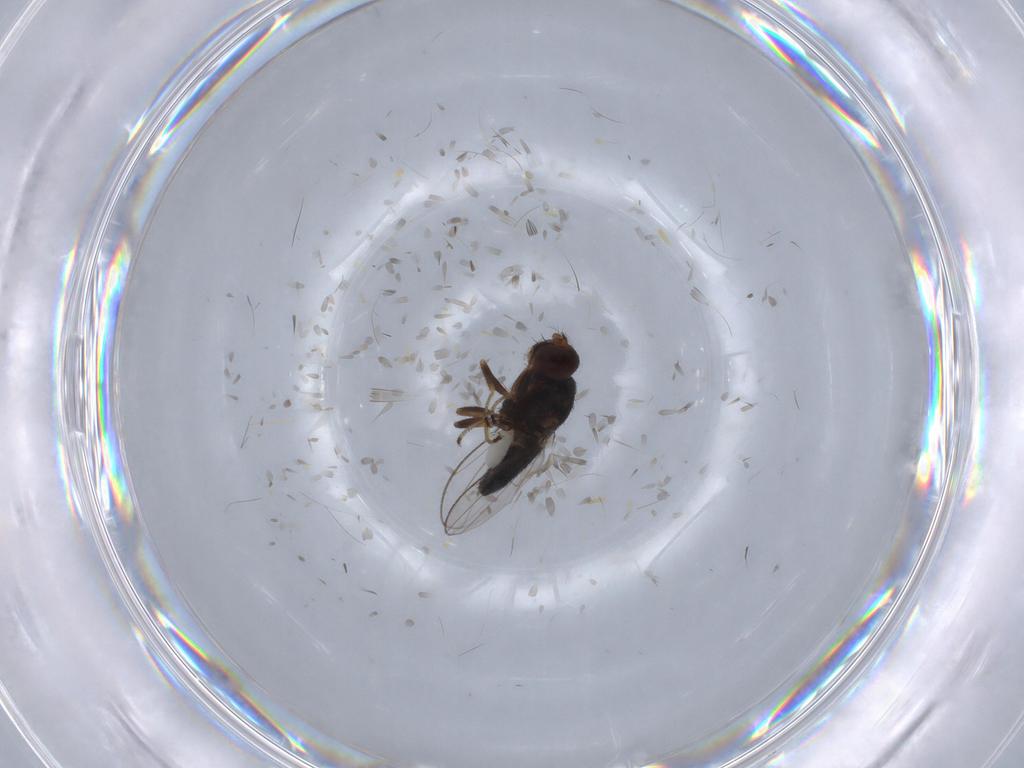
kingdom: Animalia
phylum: Arthropoda
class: Insecta
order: Diptera
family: Ephydridae
